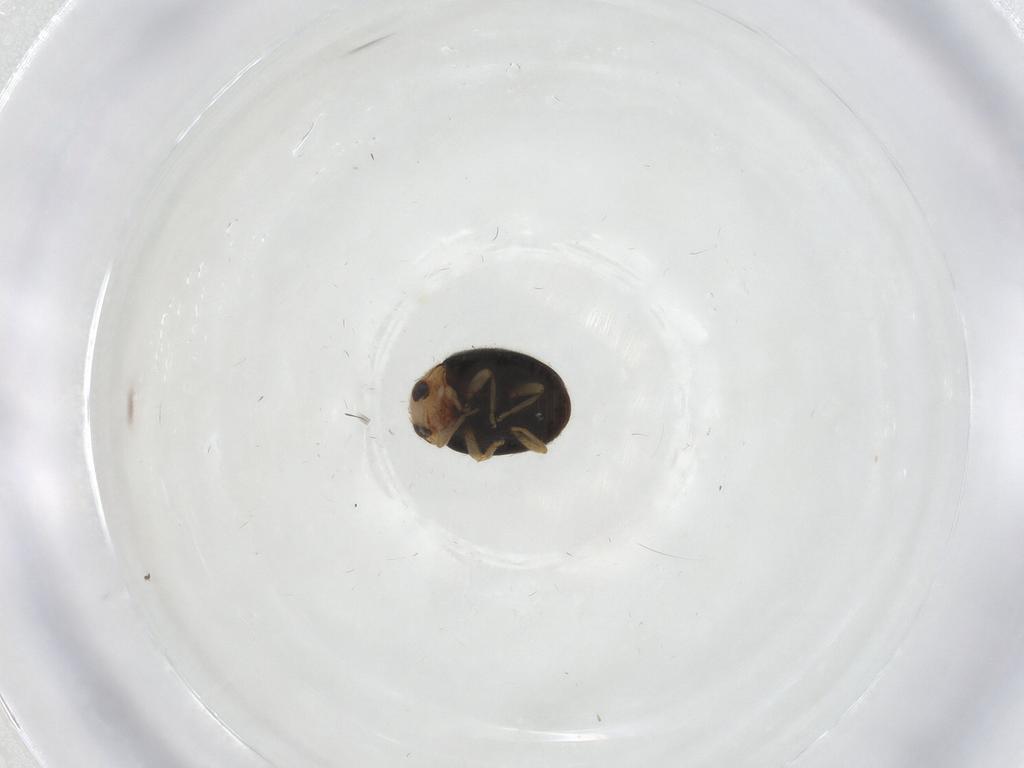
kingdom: Animalia
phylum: Arthropoda
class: Insecta
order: Coleoptera
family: Coccinellidae
